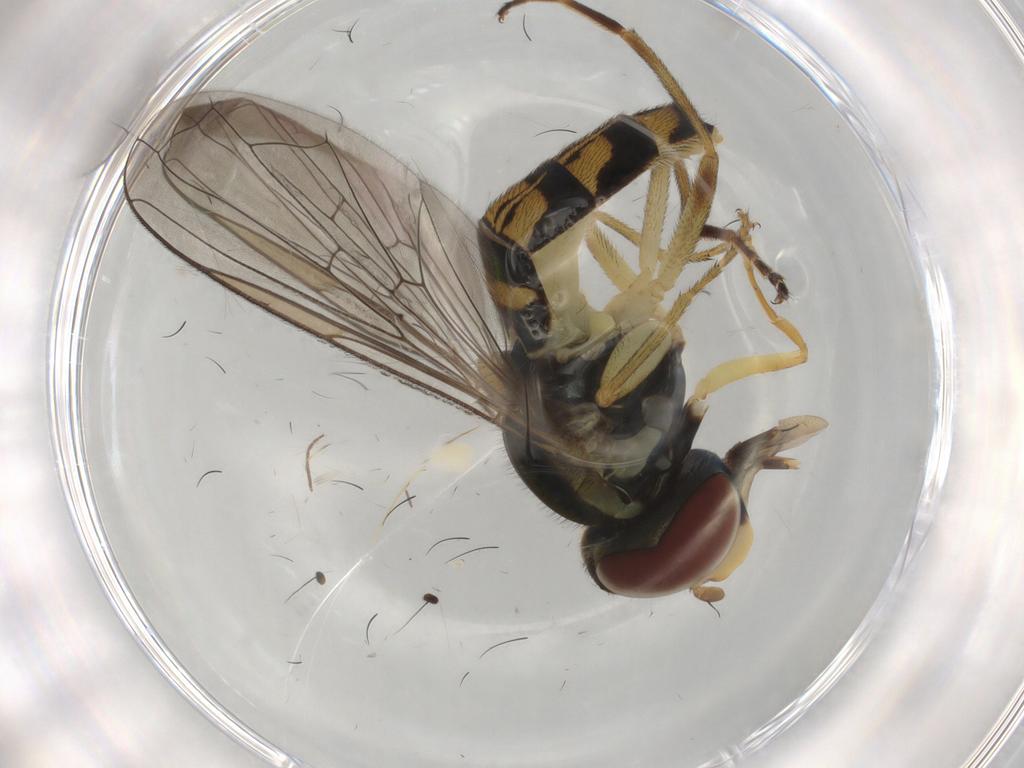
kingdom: Animalia
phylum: Arthropoda
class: Insecta
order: Diptera
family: Syrphidae
